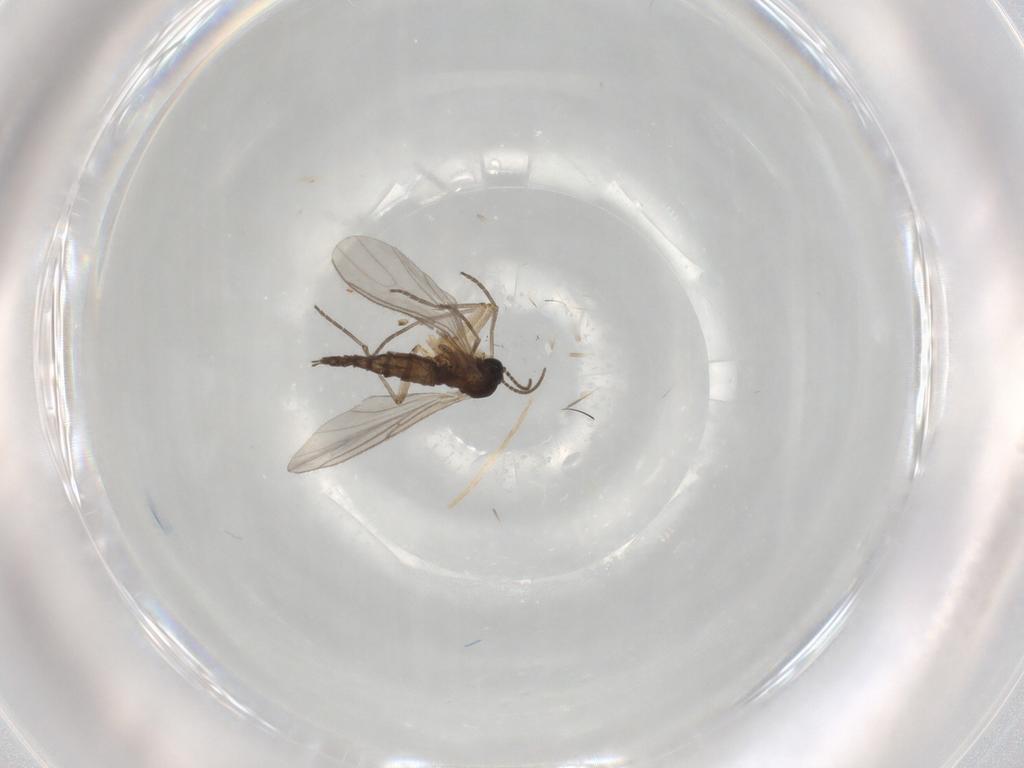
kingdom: Animalia
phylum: Arthropoda
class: Insecta
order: Diptera
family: Sciaridae
